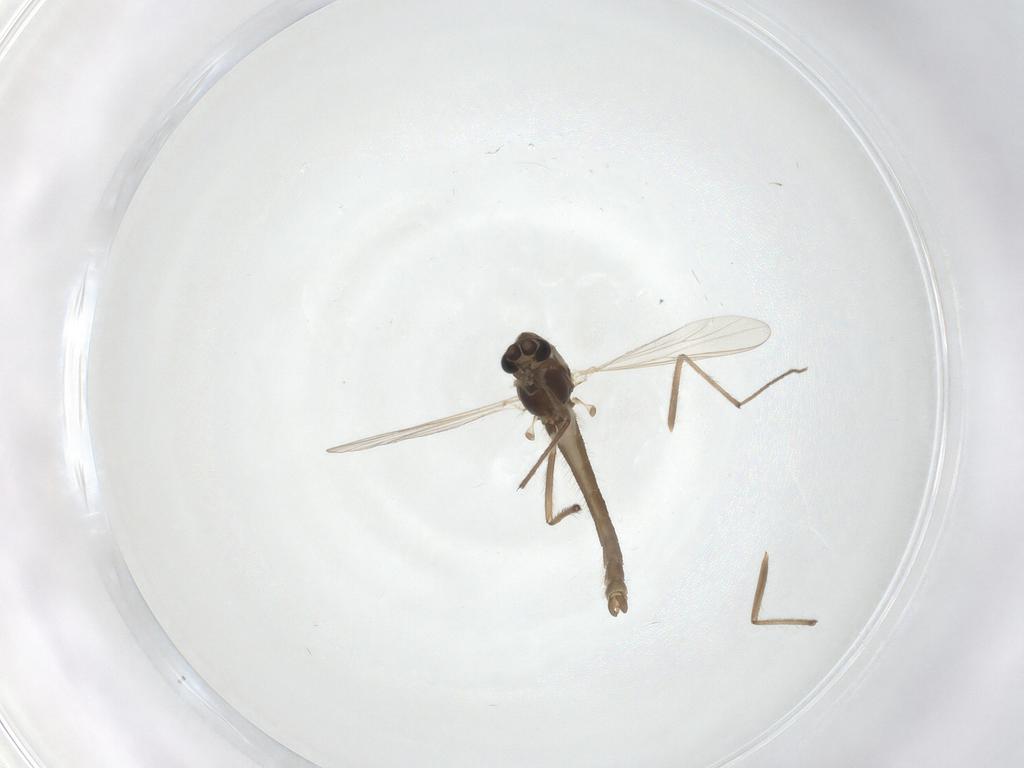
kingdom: Animalia
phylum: Arthropoda
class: Insecta
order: Diptera
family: Chironomidae
